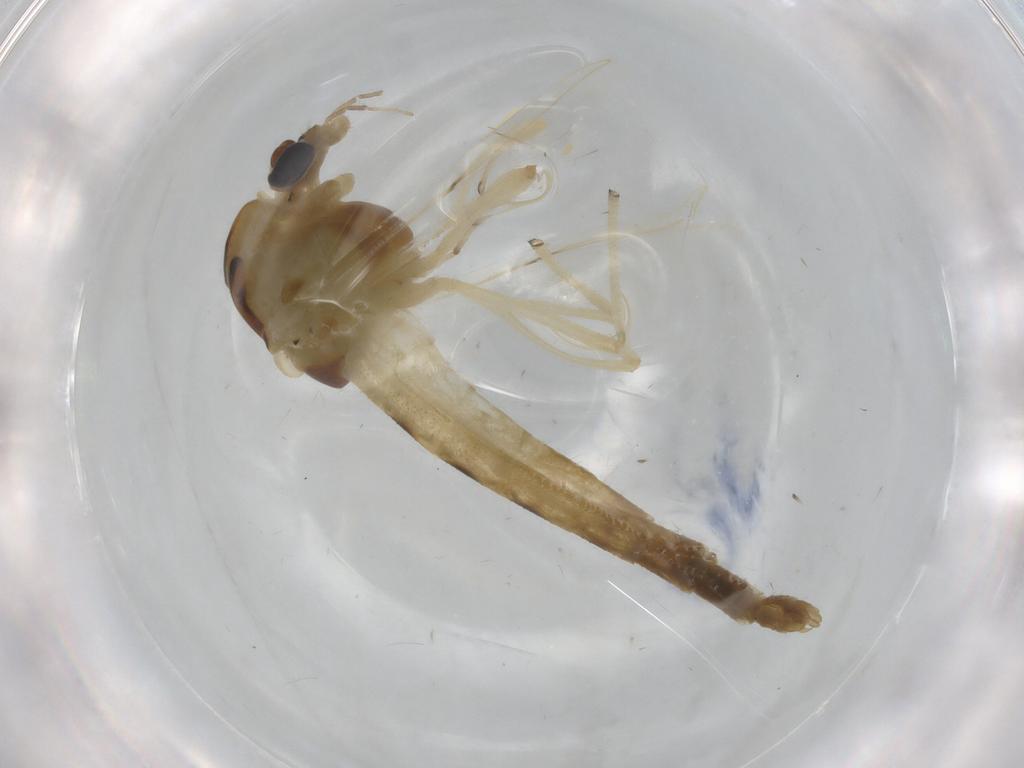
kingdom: Animalia
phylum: Arthropoda
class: Insecta
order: Diptera
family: Chironomidae
